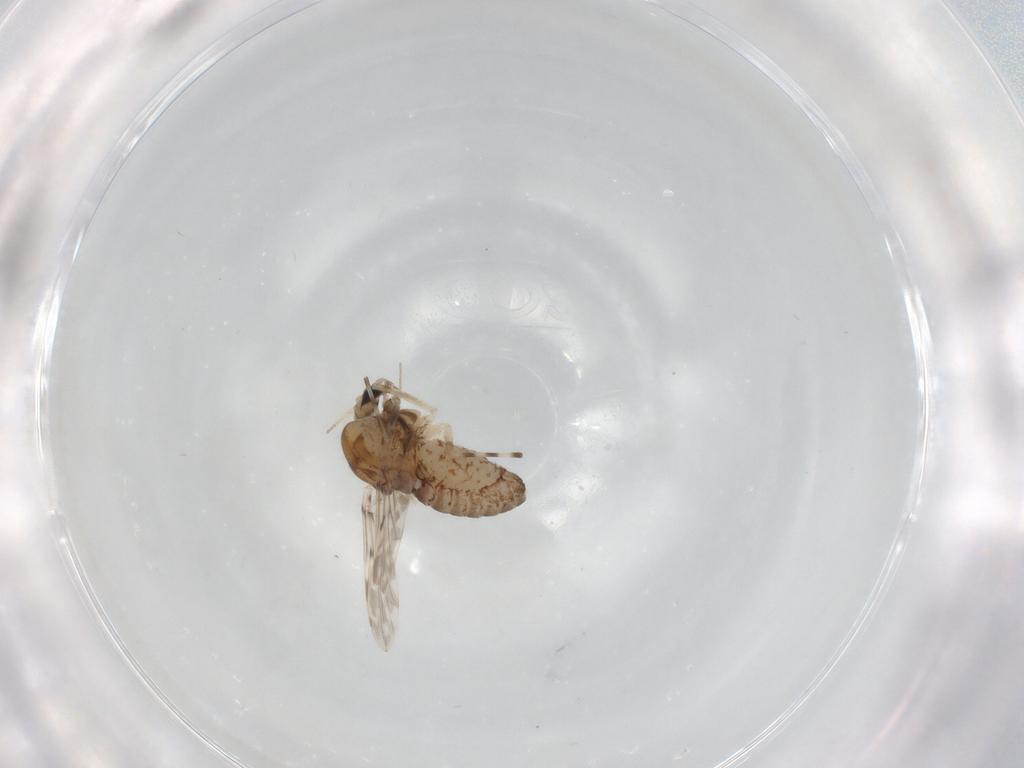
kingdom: Animalia
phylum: Arthropoda
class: Insecta
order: Diptera
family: Chironomidae
